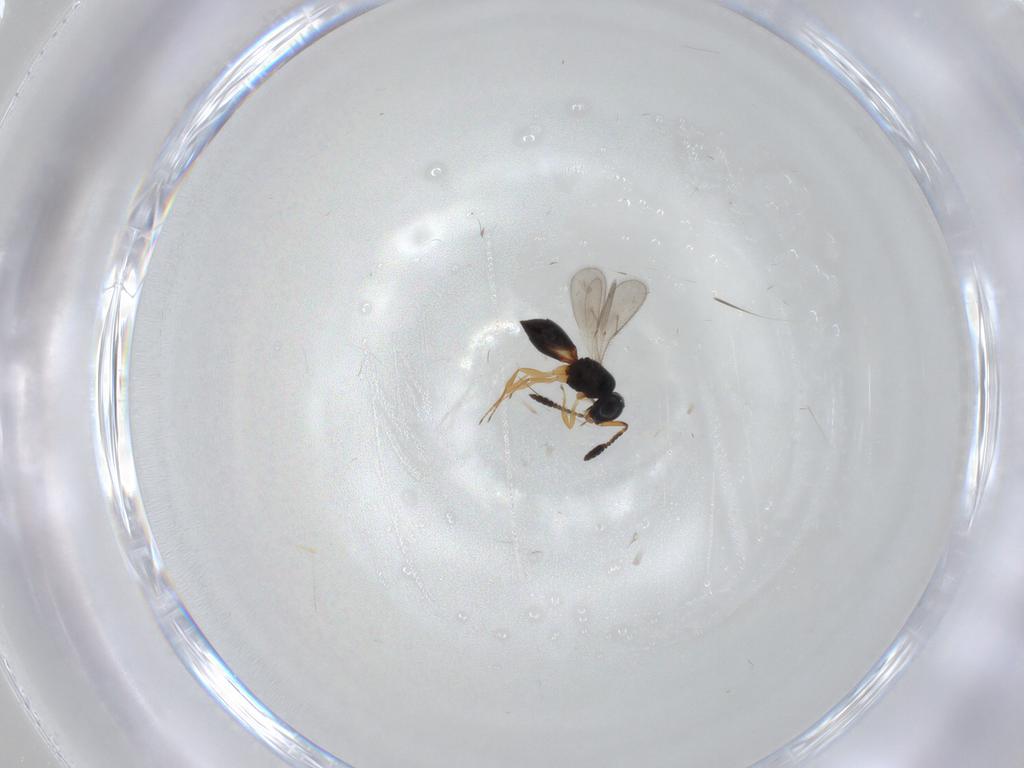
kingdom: Animalia
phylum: Arthropoda
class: Insecta
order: Hymenoptera
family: Scelionidae
